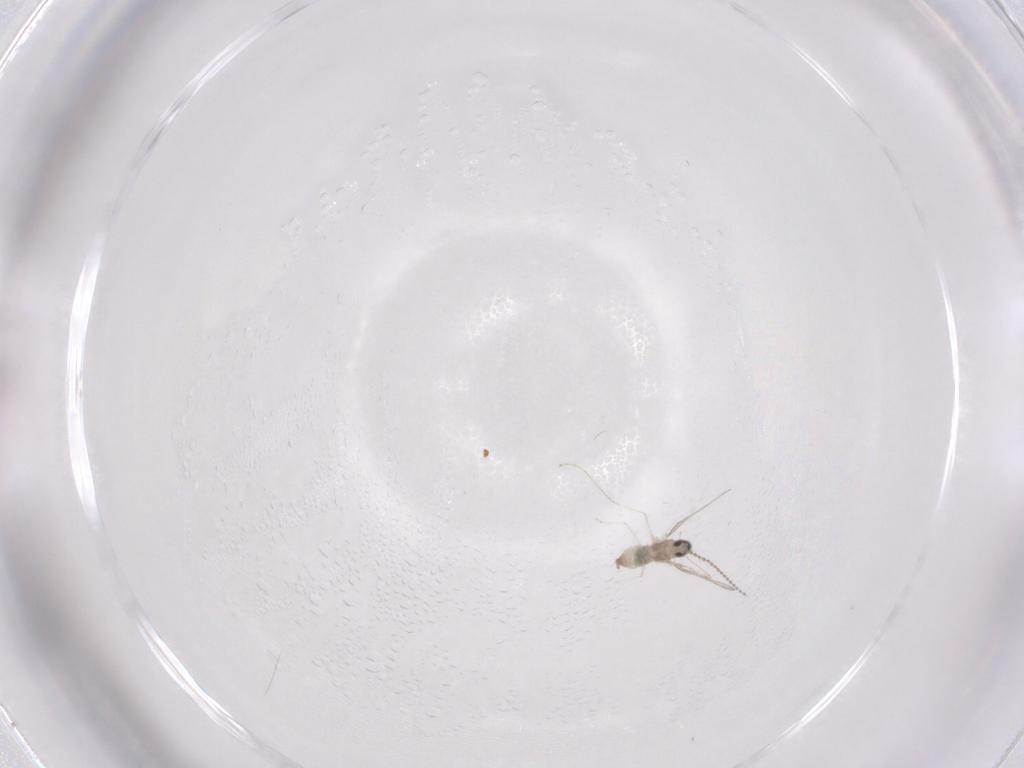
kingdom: Animalia
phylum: Arthropoda
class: Insecta
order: Diptera
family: Cecidomyiidae
